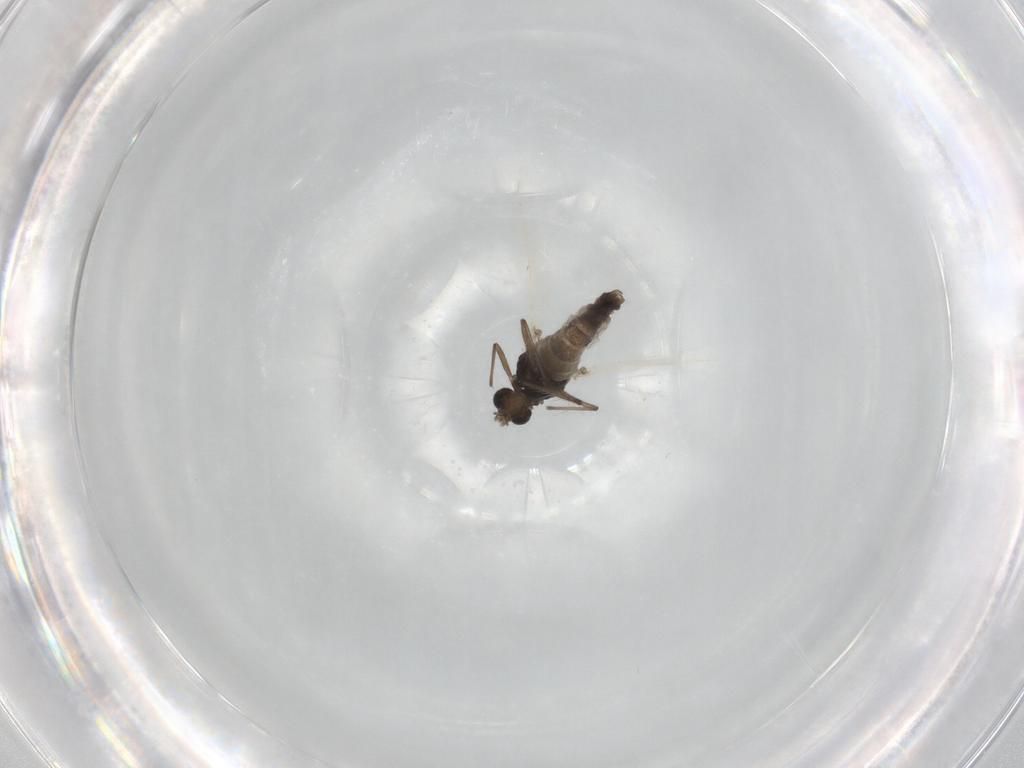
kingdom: Animalia
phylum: Arthropoda
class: Insecta
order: Diptera
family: Chironomidae
